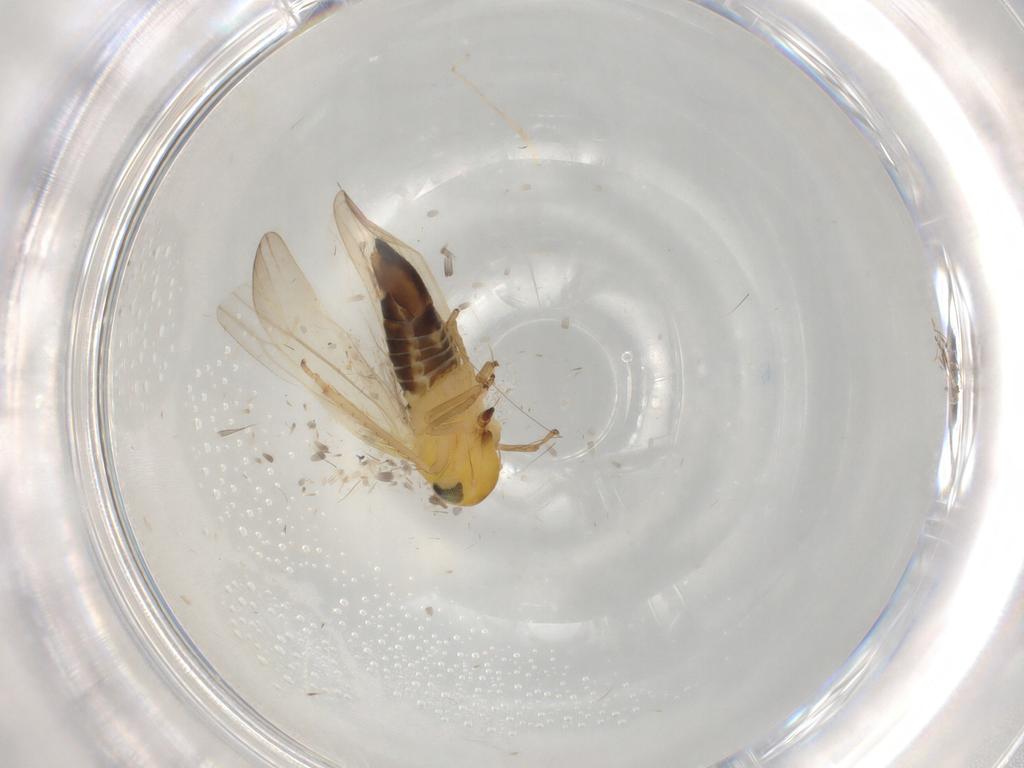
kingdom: Animalia
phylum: Arthropoda
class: Insecta
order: Hemiptera
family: Cicadellidae
